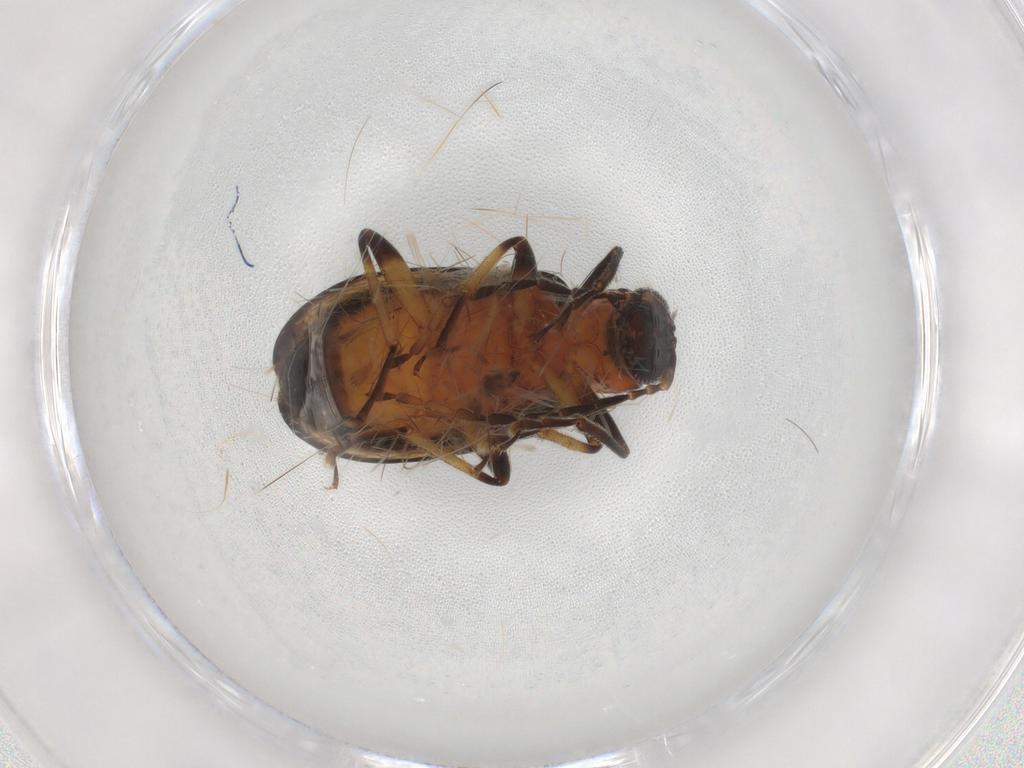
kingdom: Animalia
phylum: Arthropoda
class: Insecta
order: Coleoptera
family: Chrysomelidae
